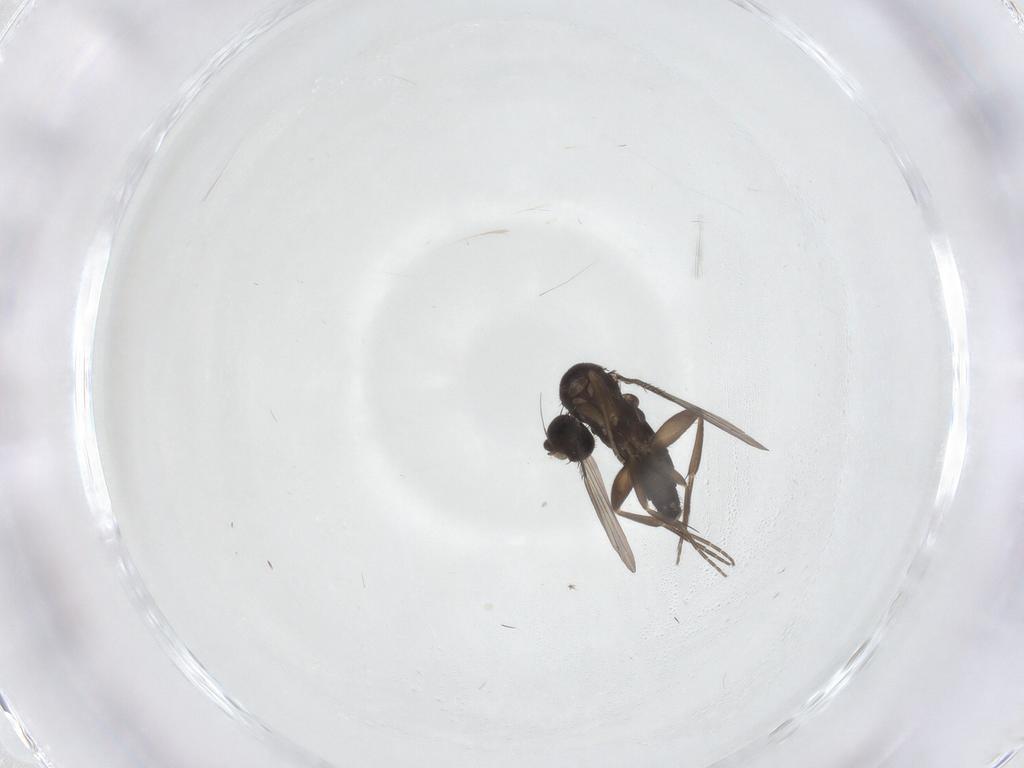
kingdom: Animalia
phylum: Arthropoda
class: Insecta
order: Diptera
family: Phoridae
